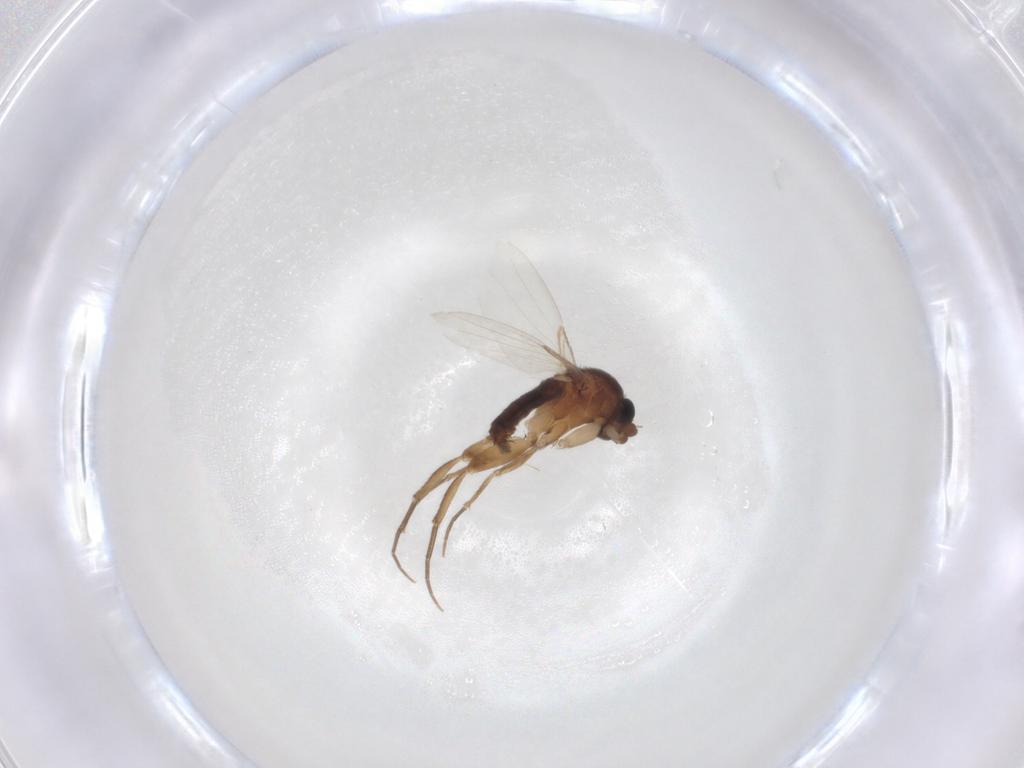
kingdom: Animalia
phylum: Arthropoda
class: Insecta
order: Diptera
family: Phoridae
